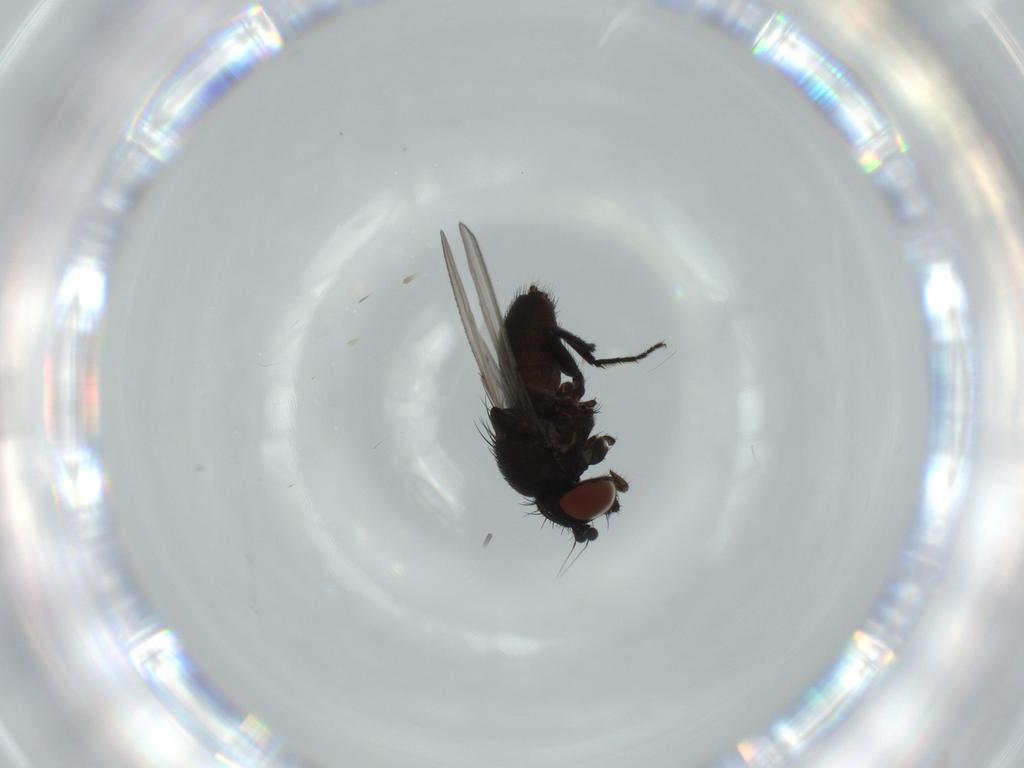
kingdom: Animalia
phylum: Arthropoda
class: Insecta
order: Diptera
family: Milichiidae
